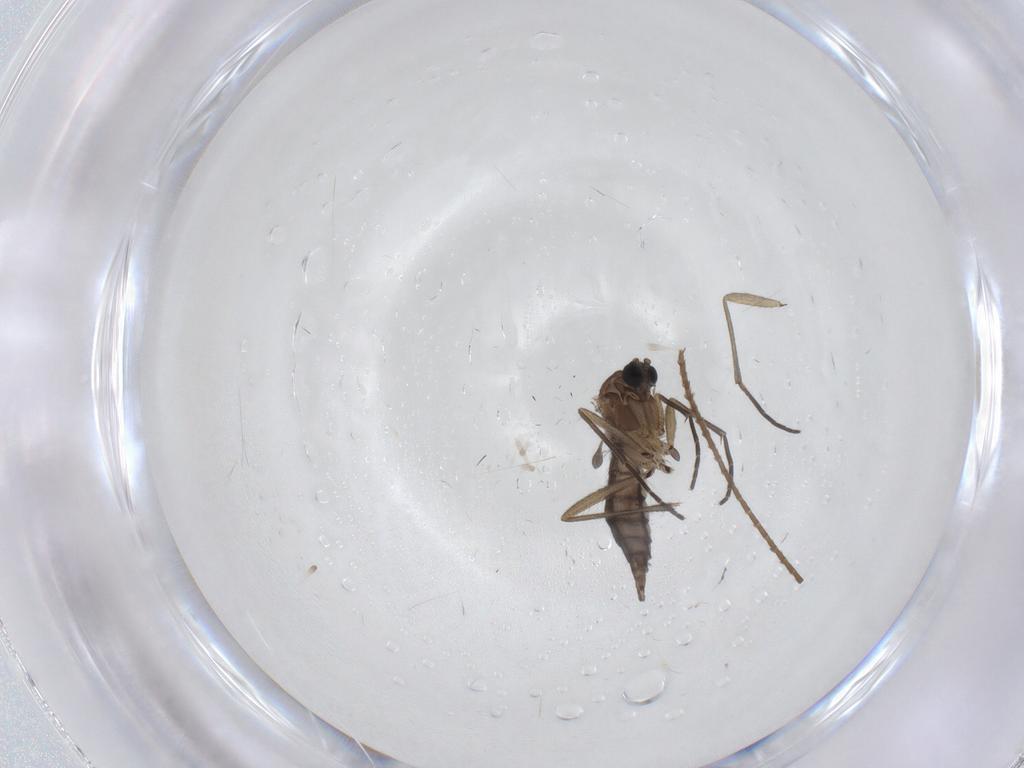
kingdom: Animalia
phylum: Arthropoda
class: Insecta
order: Diptera
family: Sciaridae
